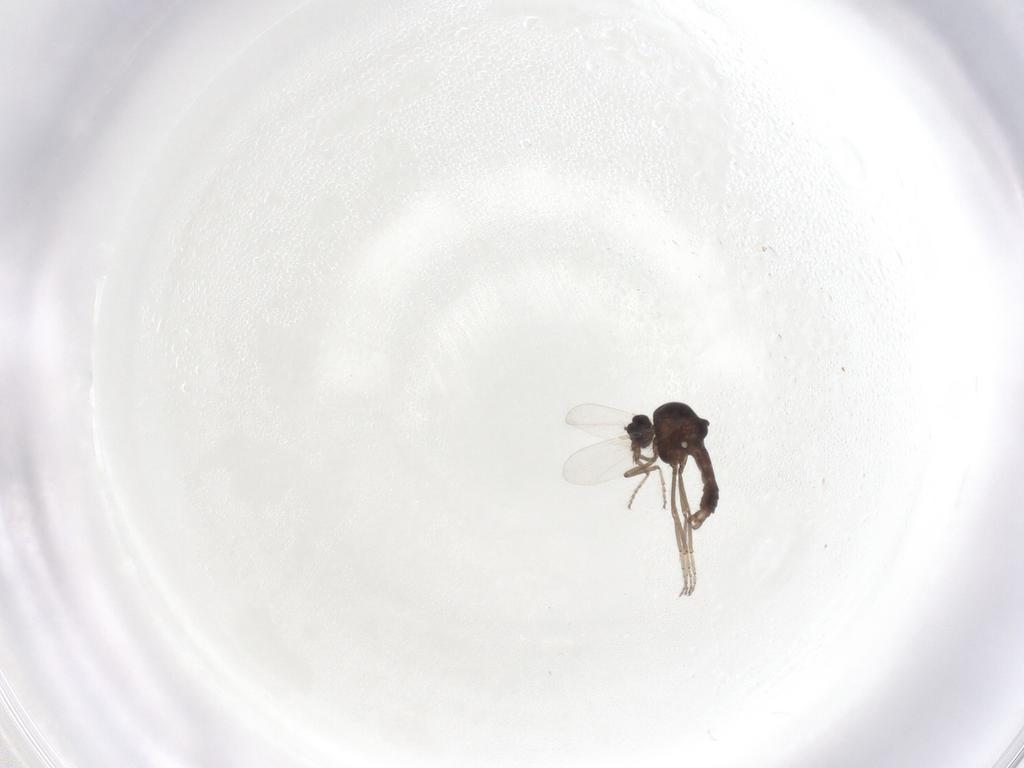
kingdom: Animalia
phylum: Arthropoda
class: Insecta
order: Diptera
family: Ceratopogonidae
